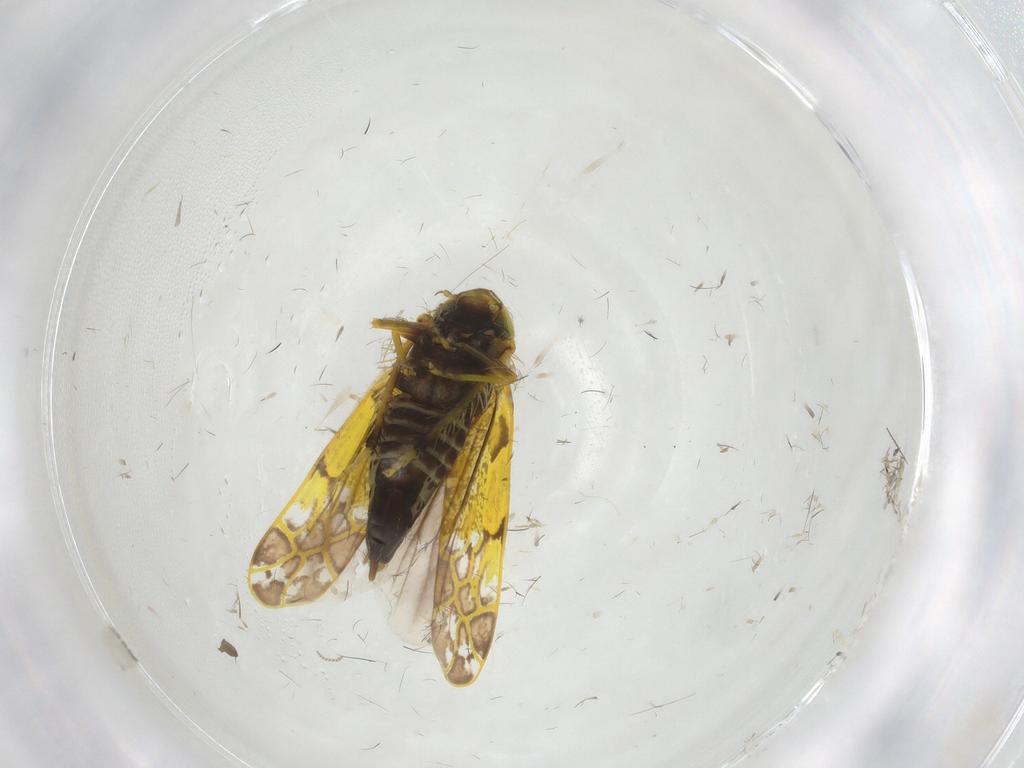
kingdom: Animalia
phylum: Arthropoda
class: Insecta
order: Hemiptera
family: Cicadellidae
